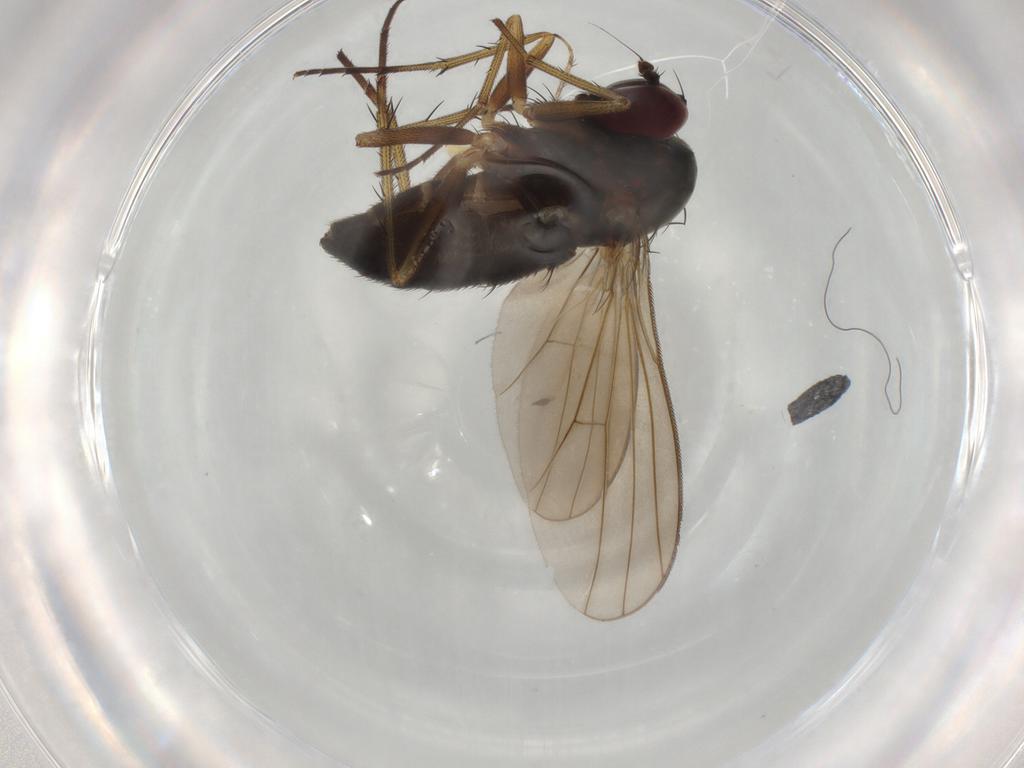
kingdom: Animalia
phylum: Arthropoda
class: Insecta
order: Diptera
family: Dolichopodidae
